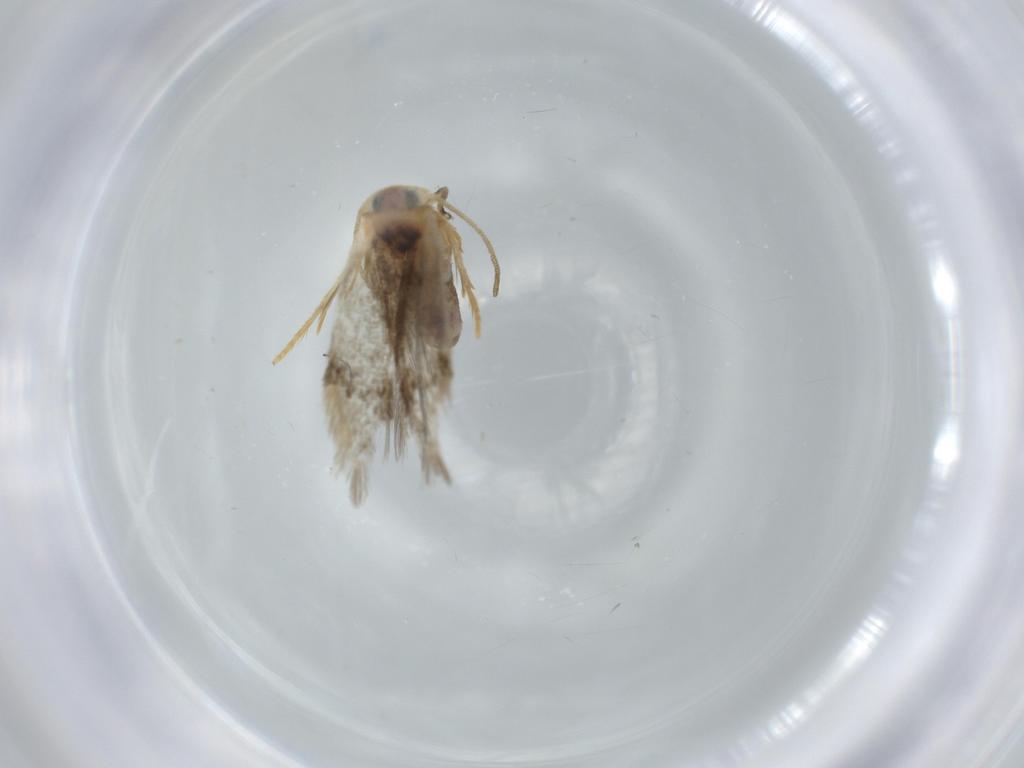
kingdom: Animalia
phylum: Arthropoda
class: Insecta
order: Lepidoptera
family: Nepticulidae
